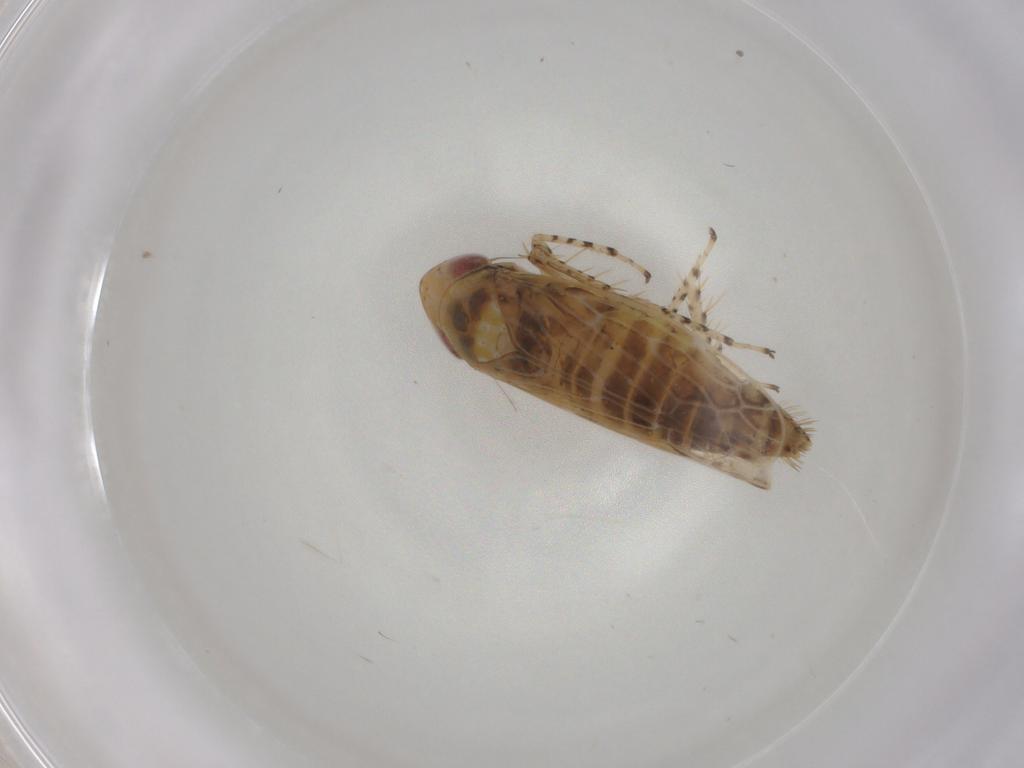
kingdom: Animalia
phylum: Arthropoda
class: Insecta
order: Hemiptera
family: Cicadellidae
